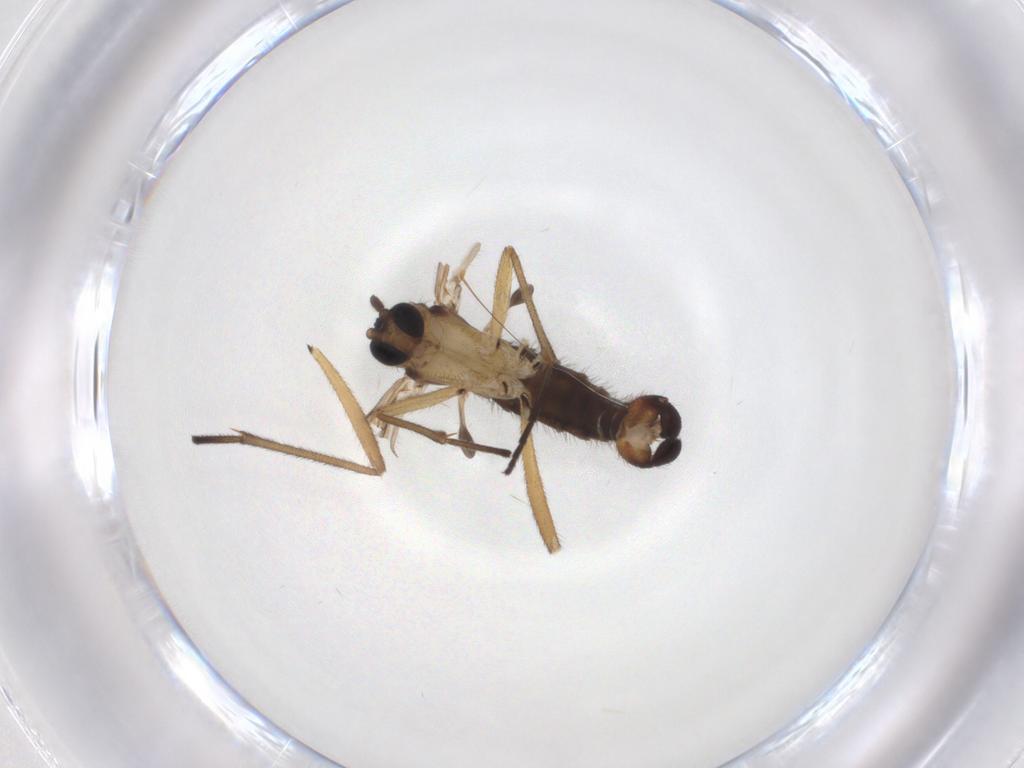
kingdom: Animalia
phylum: Arthropoda
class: Insecta
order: Diptera
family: Sciaridae
